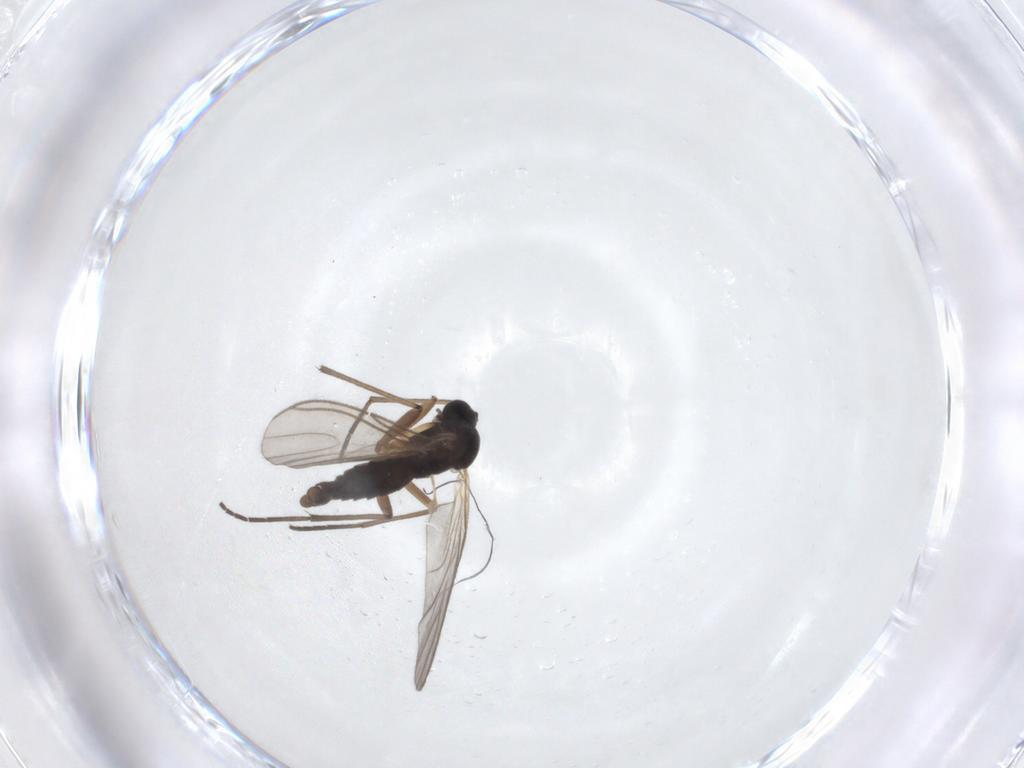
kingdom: Animalia
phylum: Arthropoda
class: Insecta
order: Diptera
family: Sciaridae
